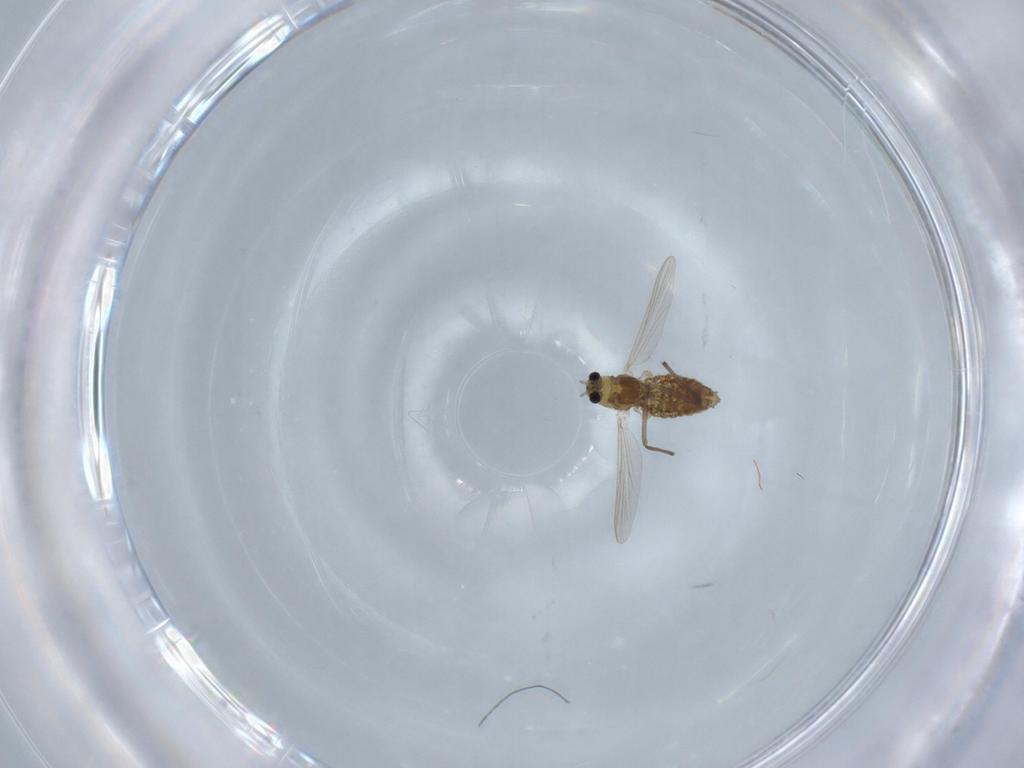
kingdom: Animalia
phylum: Arthropoda
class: Insecta
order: Diptera
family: Chironomidae
